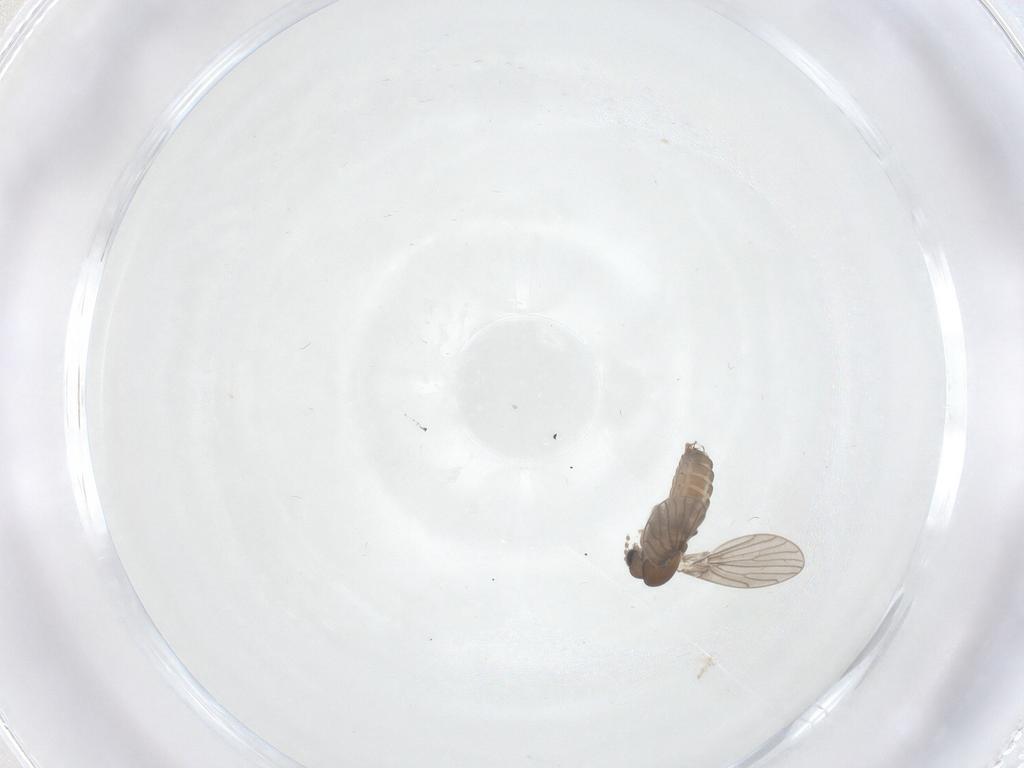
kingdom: Animalia
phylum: Arthropoda
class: Insecta
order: Diptera
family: Cecidomyiidae
